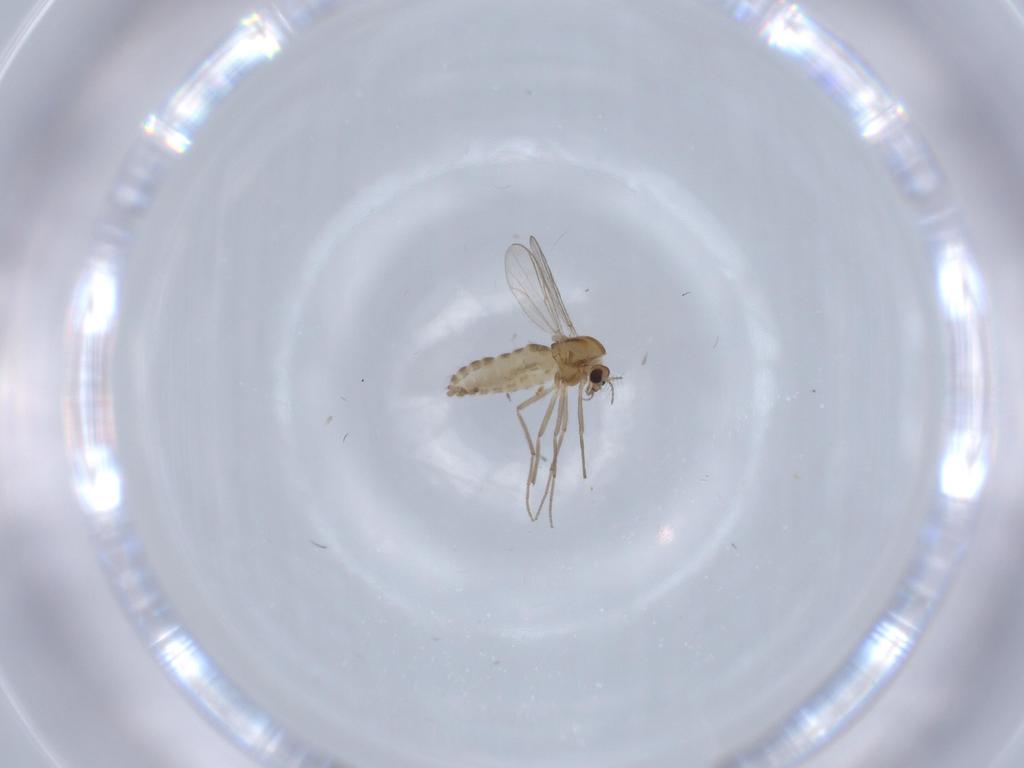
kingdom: Animalia
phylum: Arthropoda
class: Insecta
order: Diptera
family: Chironomidae
